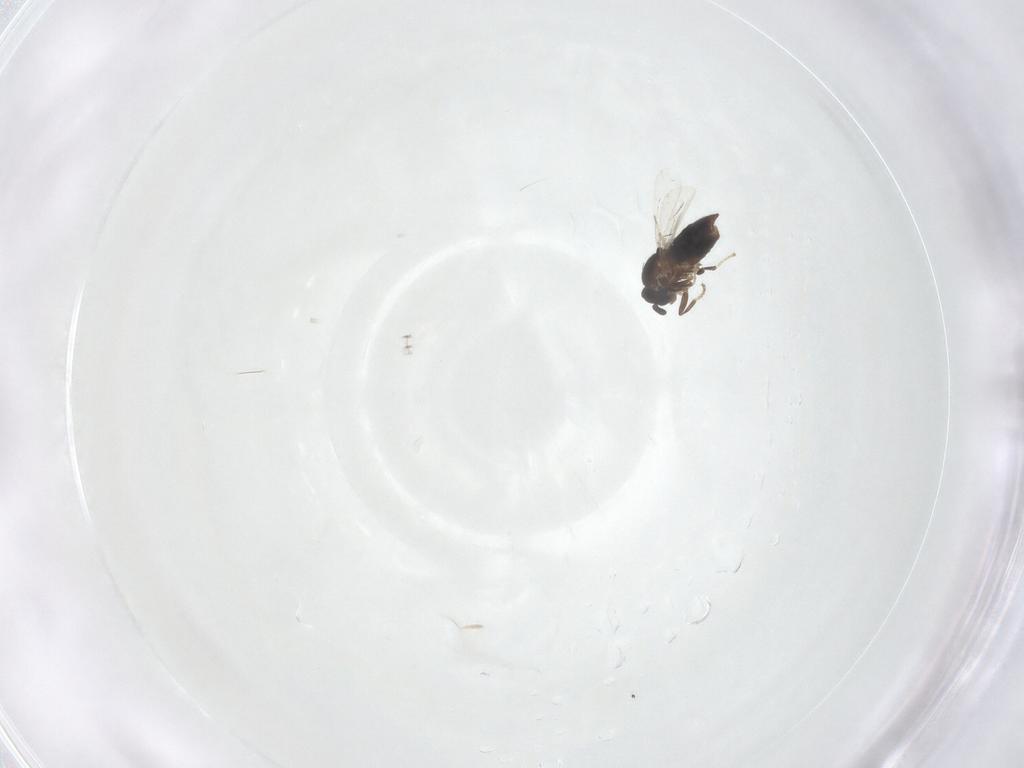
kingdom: Animalia
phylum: Arthropoda
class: Insecta
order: Diptera
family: Scatopsidae
